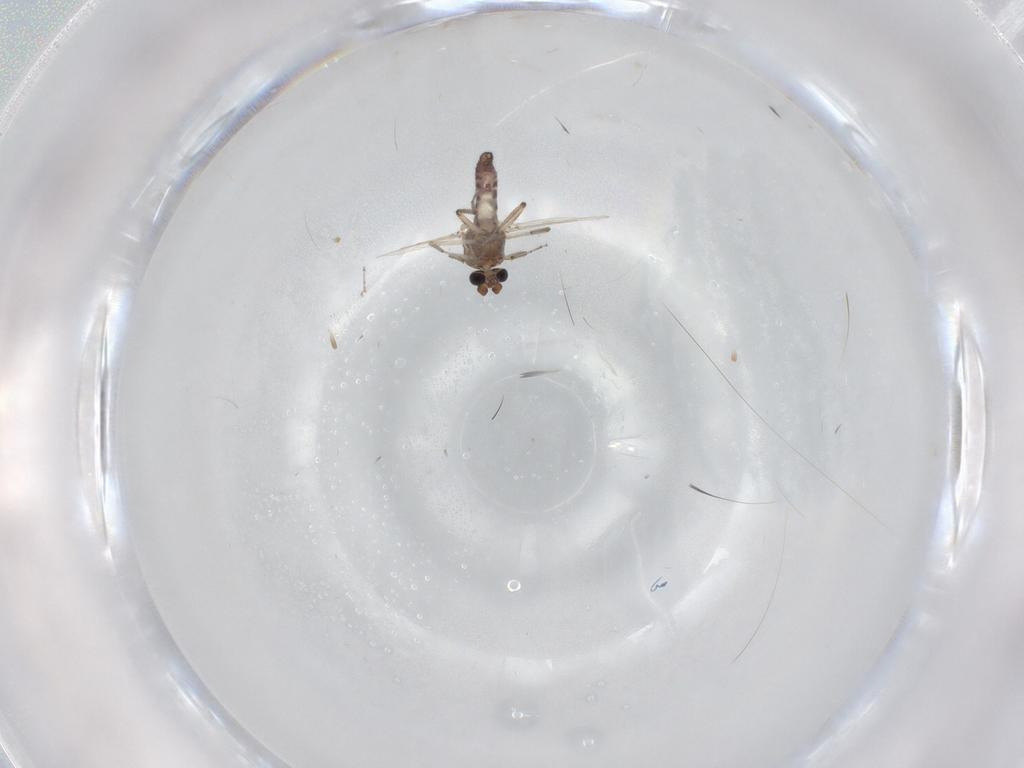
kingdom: Animalia
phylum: Arthropoda
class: Insecta
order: Diptera
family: Ceratopogonidae
